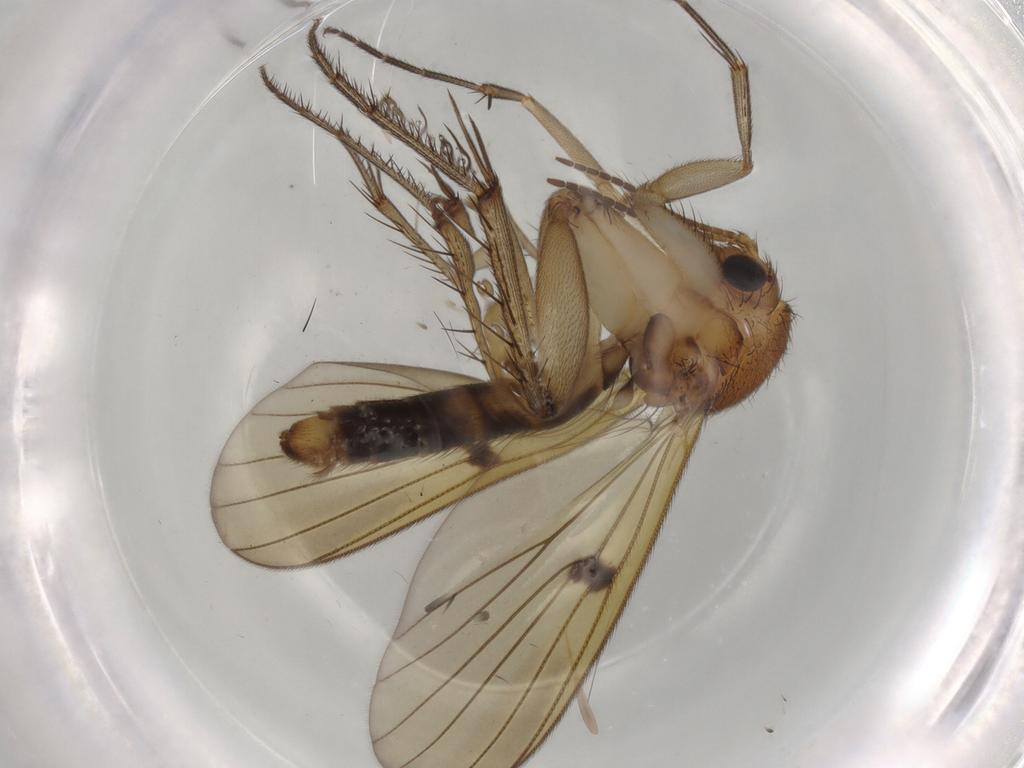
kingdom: Animalia
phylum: Arthropoda
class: Insecta
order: Diptera
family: Mycetophilidae
